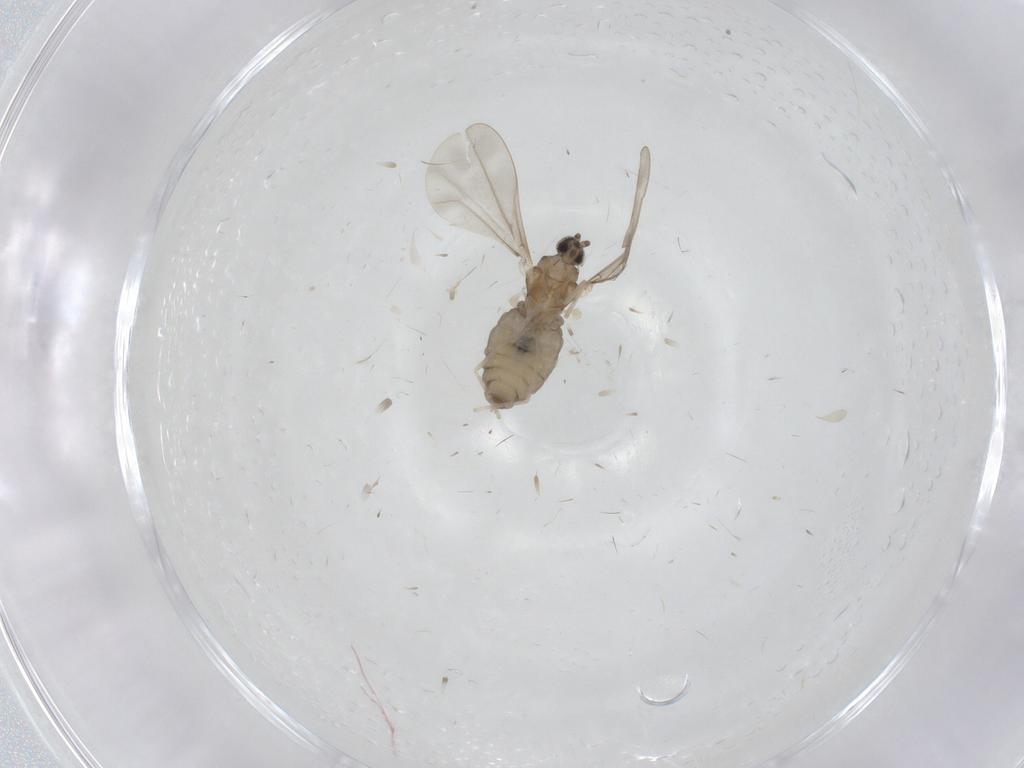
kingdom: Animalia
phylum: Arthropoda
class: Insecta
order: Diptera
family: Cecidomyiidae
